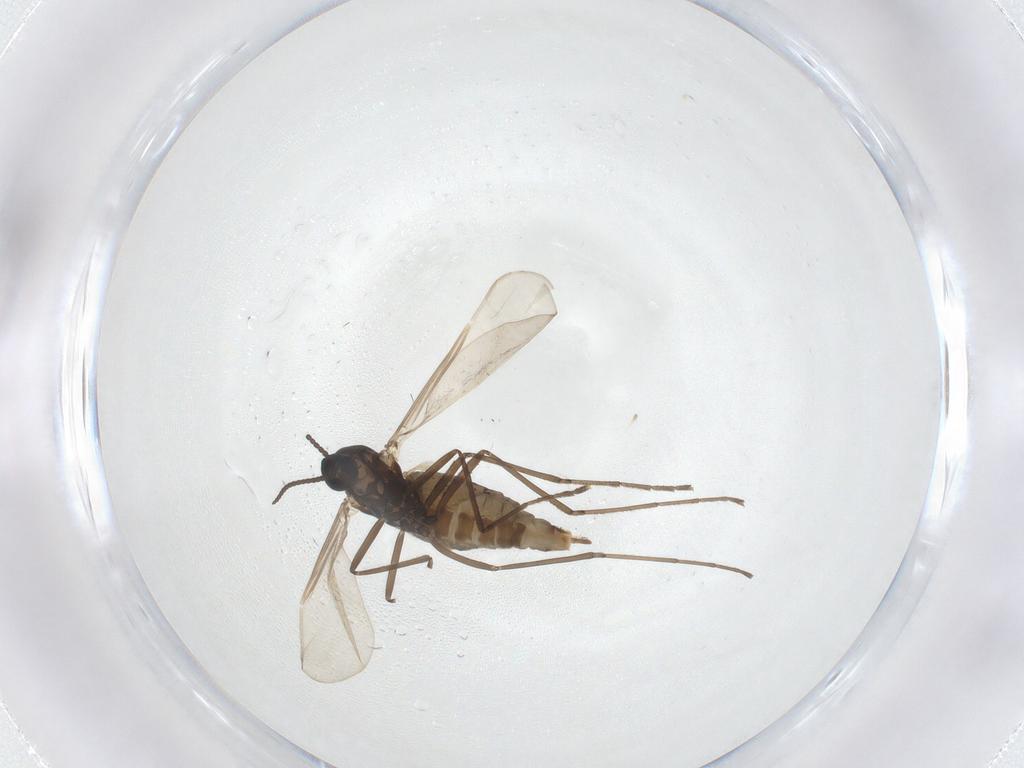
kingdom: Animalia
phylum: Arthropoda
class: Insecta
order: Diptera
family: Cecidomyiidae
